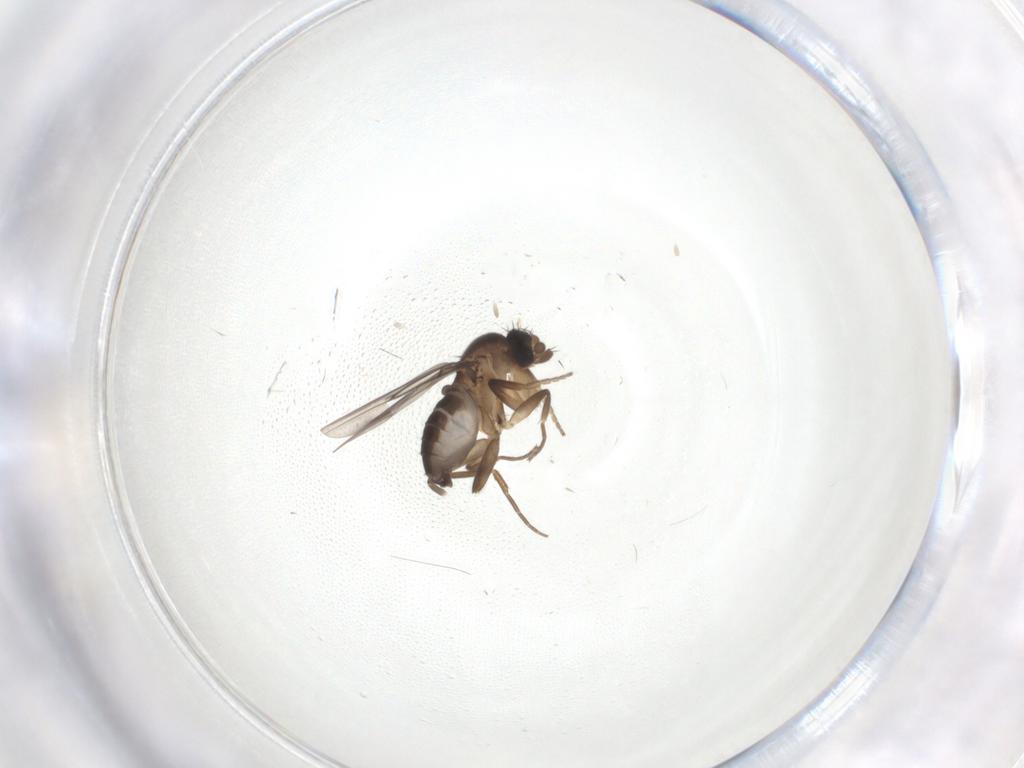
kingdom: Animalia
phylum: Arthropoda
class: Insecta
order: Diptera
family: Phoridae
